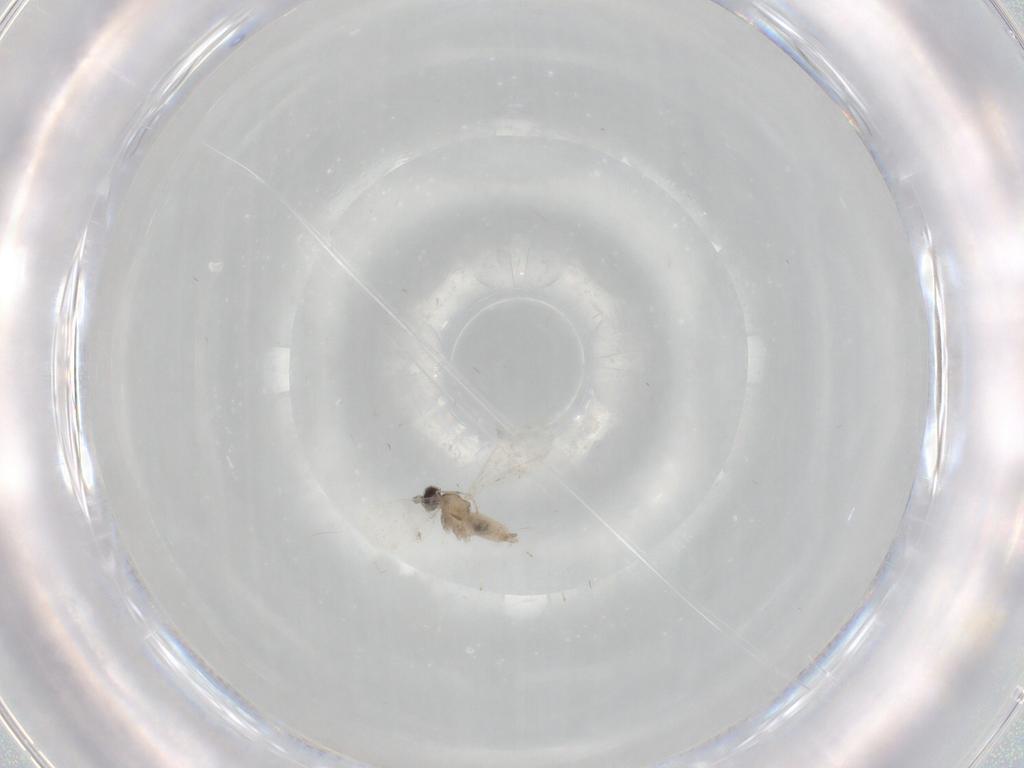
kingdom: Animalia
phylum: Arthropoda
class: Insecta
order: Diptera
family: Cecidomyiidae
